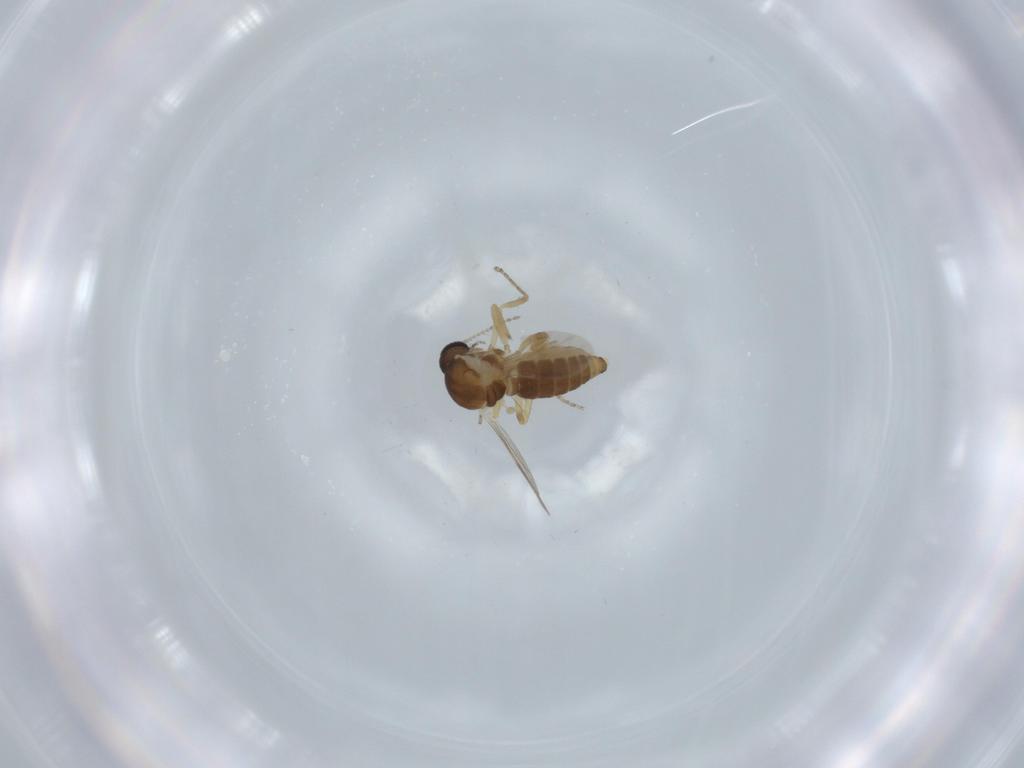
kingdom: Animalia
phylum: Arthropoda
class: Insecta
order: Diptera
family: Ceratopogonidae
